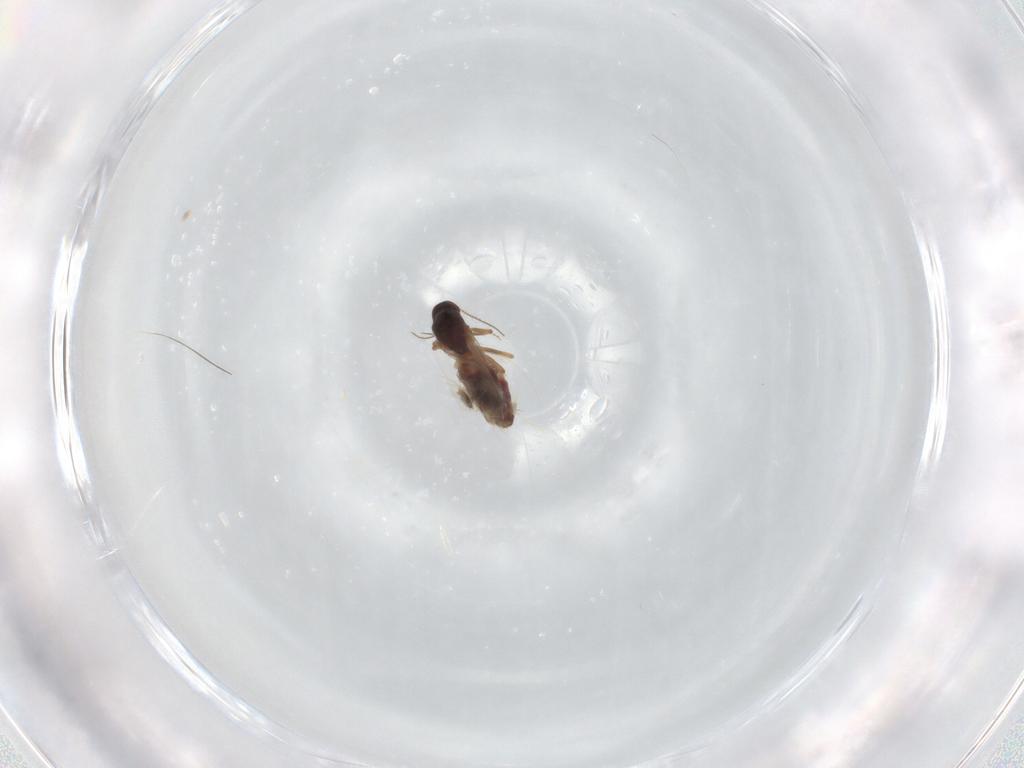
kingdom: Animalia
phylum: Arthropoda
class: Insecta
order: Diptera
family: Ceratopogonidae
